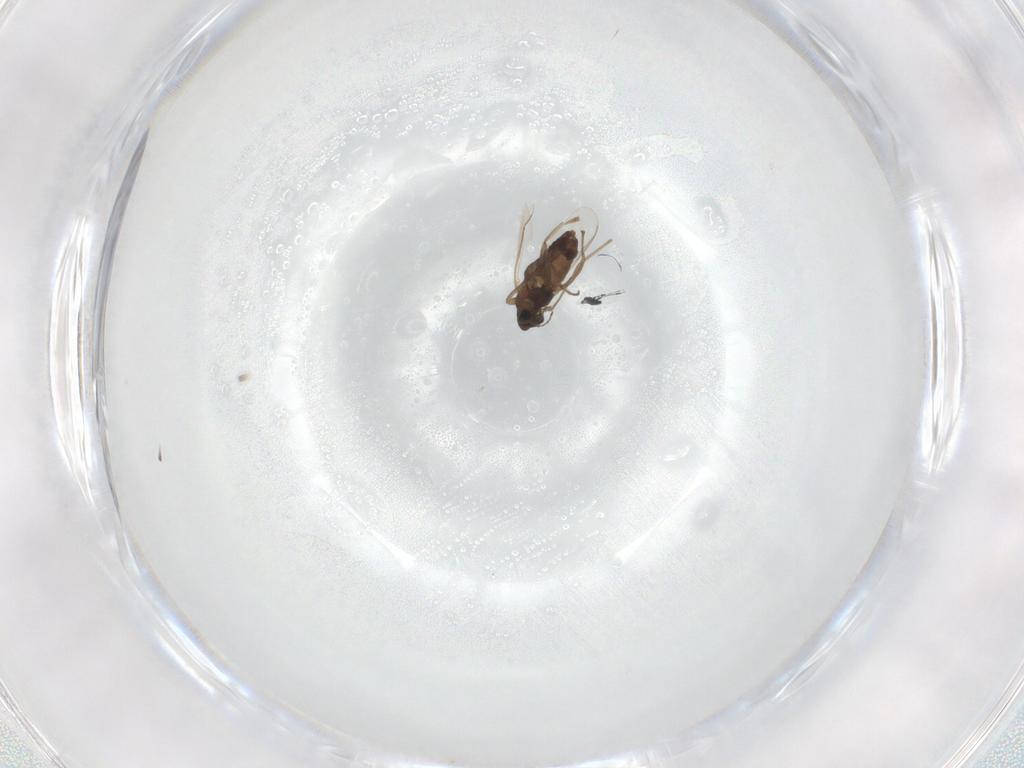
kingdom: Animalia
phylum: Arthropoda
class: Insecta
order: Diptera
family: Chironomidae
